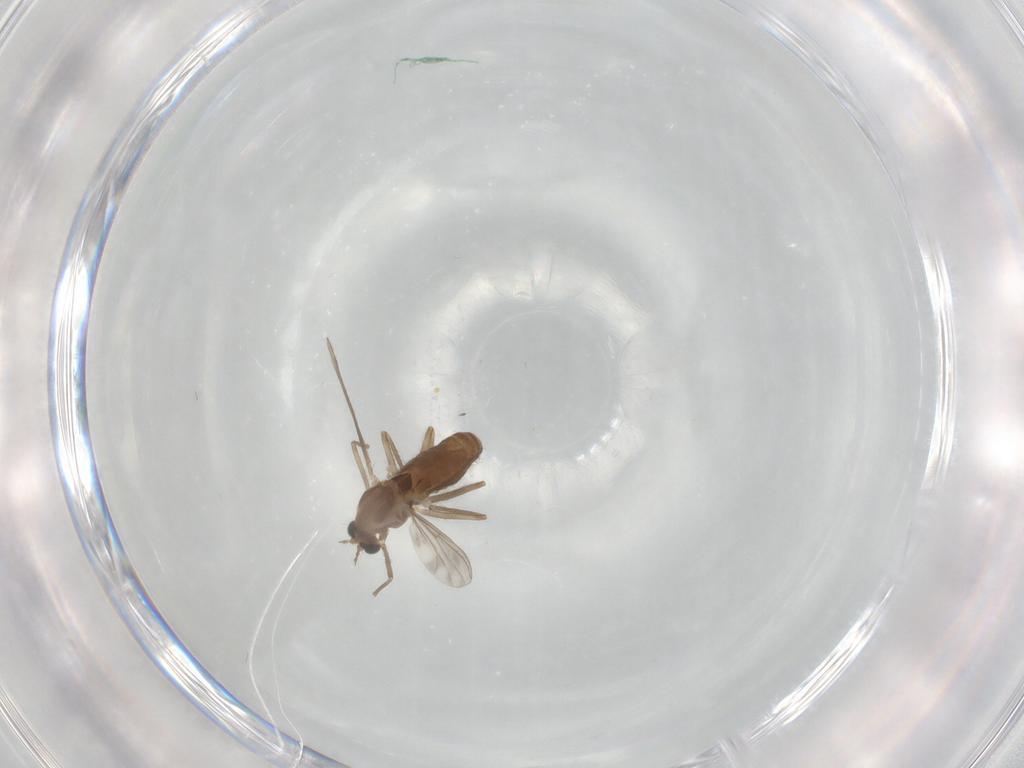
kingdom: Animalia
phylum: Arthropoda
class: Insecta
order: Diptera
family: Chironomidae
